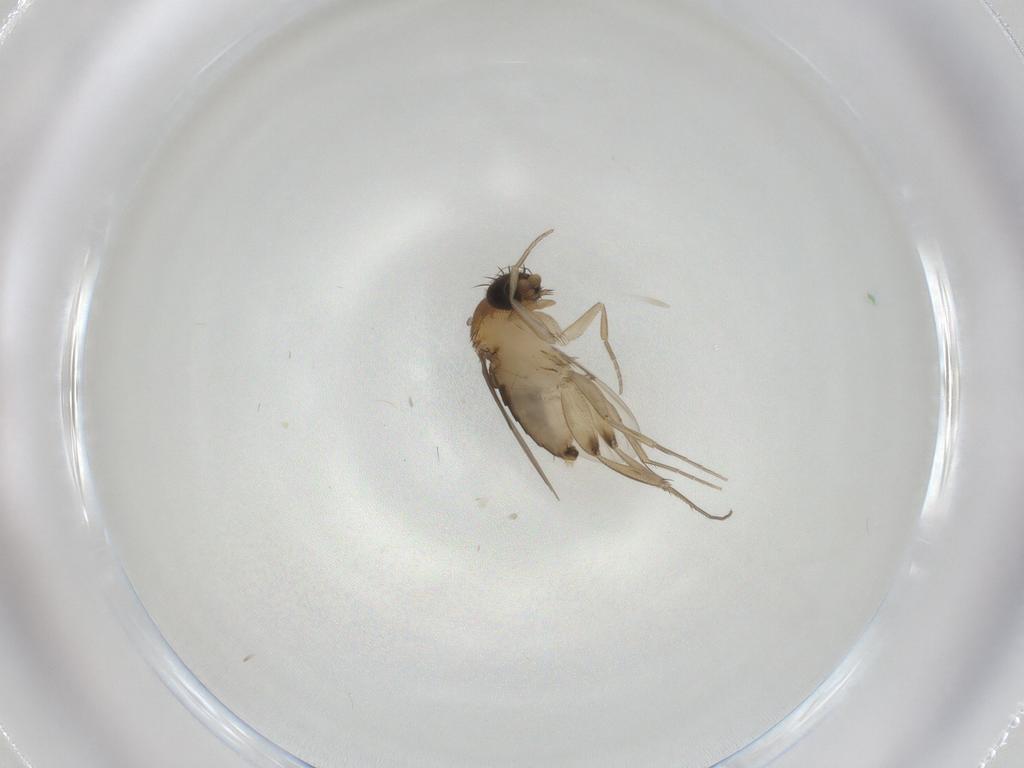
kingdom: Animalia
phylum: Arthropoda
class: Insecta
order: Diptera
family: Phoridae
